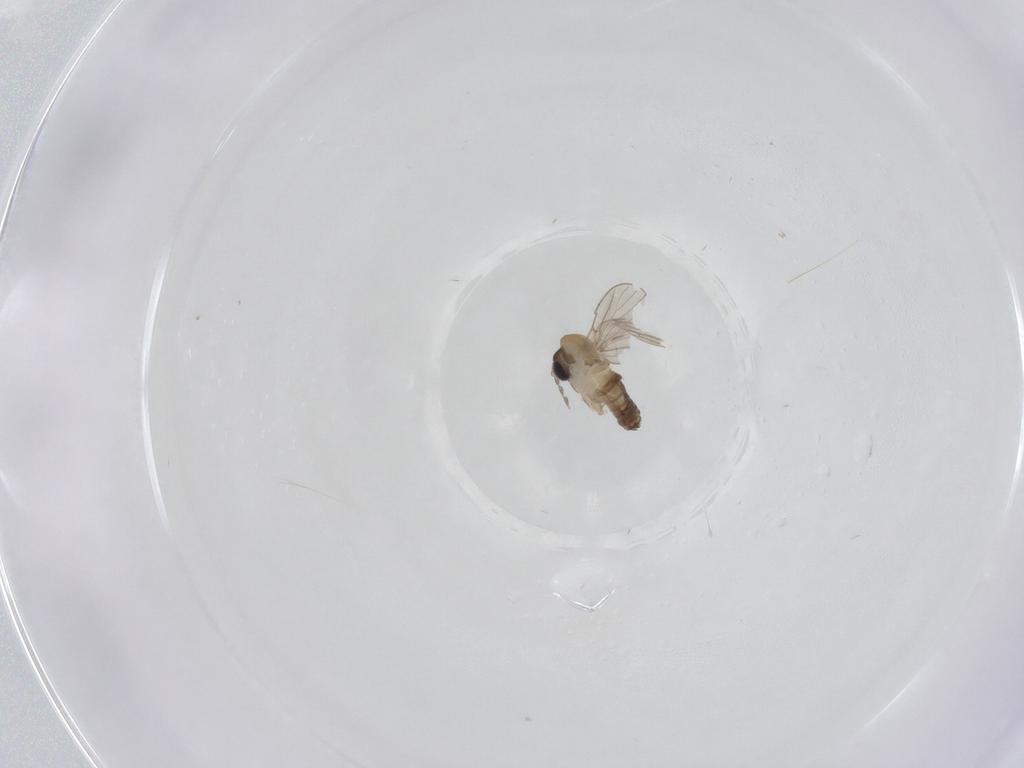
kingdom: Animalia
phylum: Arthropoda
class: Insecta
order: Diptera
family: Psychodidae
